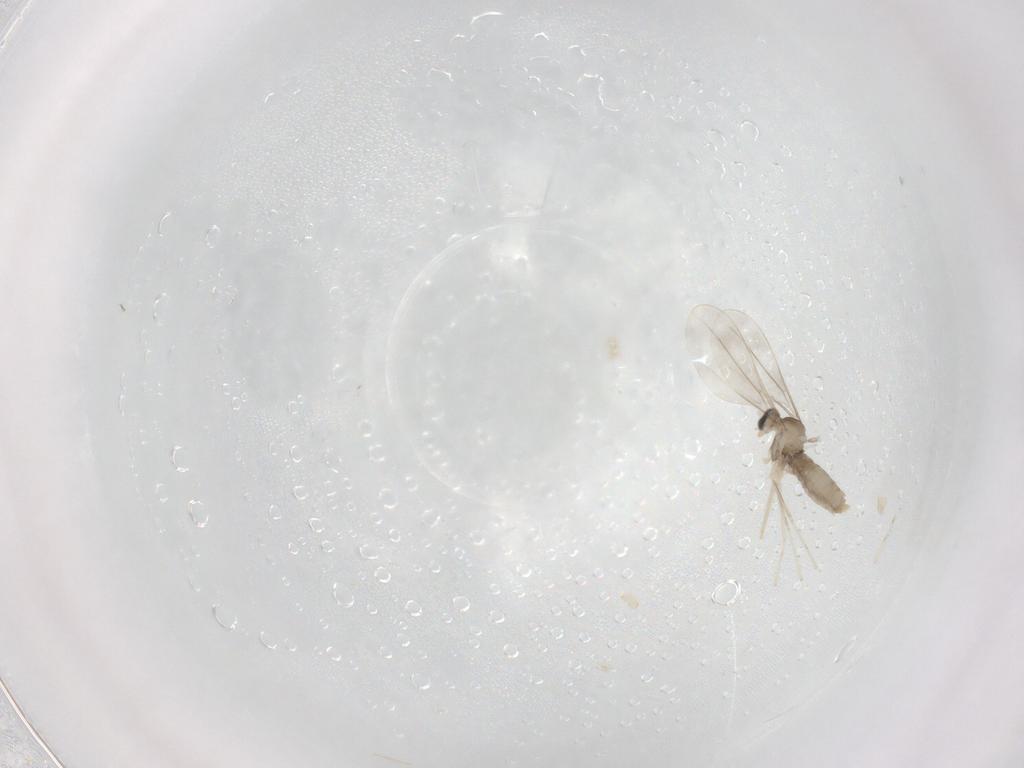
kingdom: Animalia
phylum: Arthropoda
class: Insecta
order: Diptera
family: Cecidomyiidae
